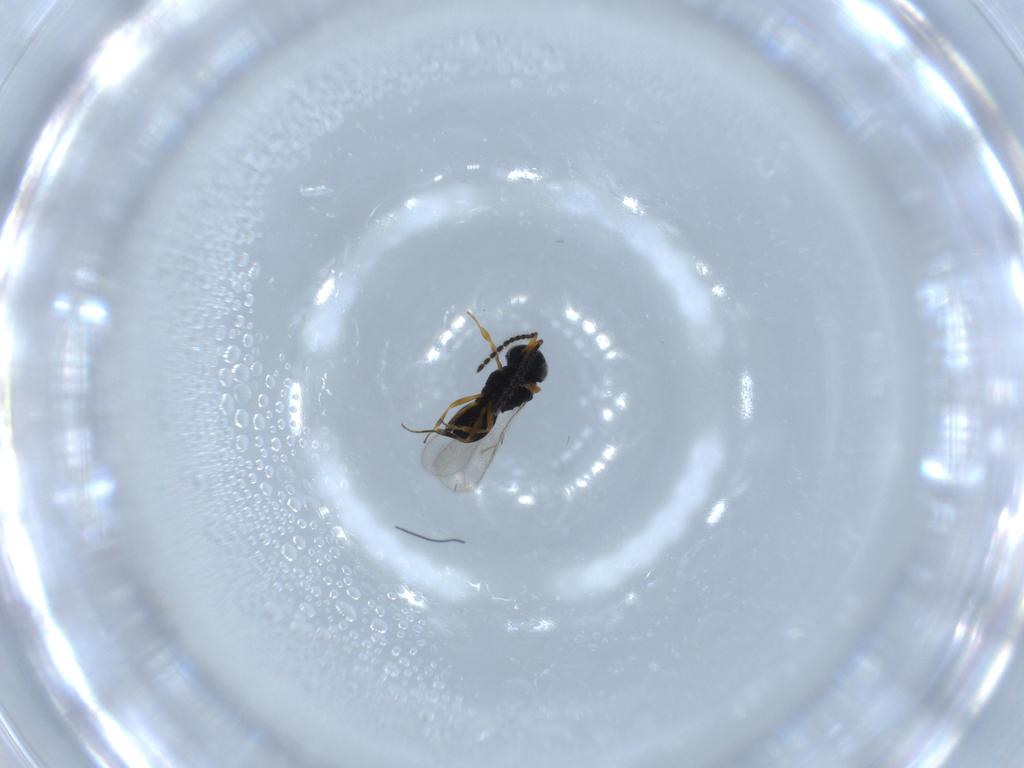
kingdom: Animalia
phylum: Arthropoda
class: Insecta
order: Hymenoptera
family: Scelionidae
